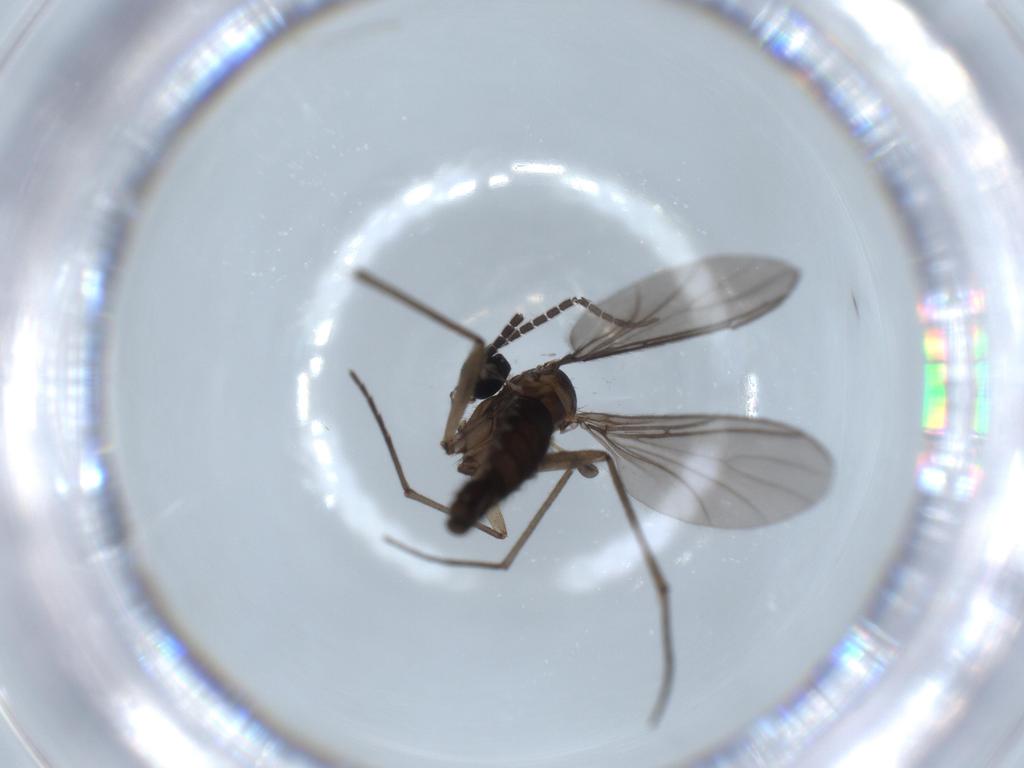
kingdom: Animalia
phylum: Arthropoda
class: Insecta
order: Diptera
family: Sciaridae
